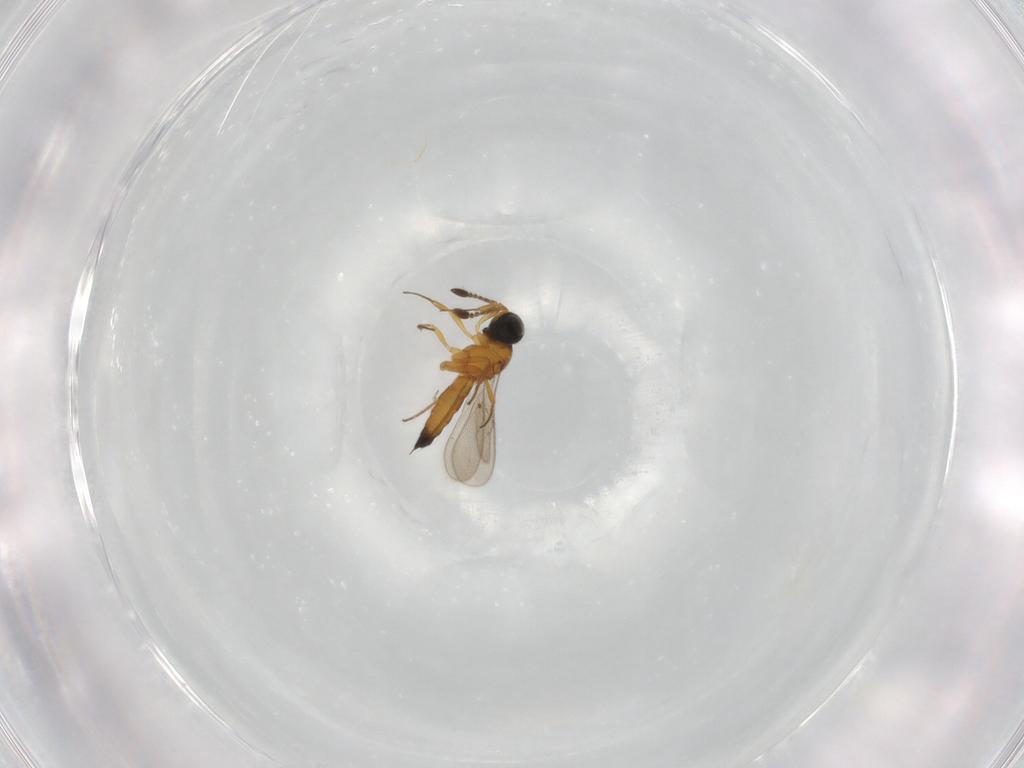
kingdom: Animalia
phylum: Arthropoda
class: Insecta
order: Hymenoptera
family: Scelionidae
